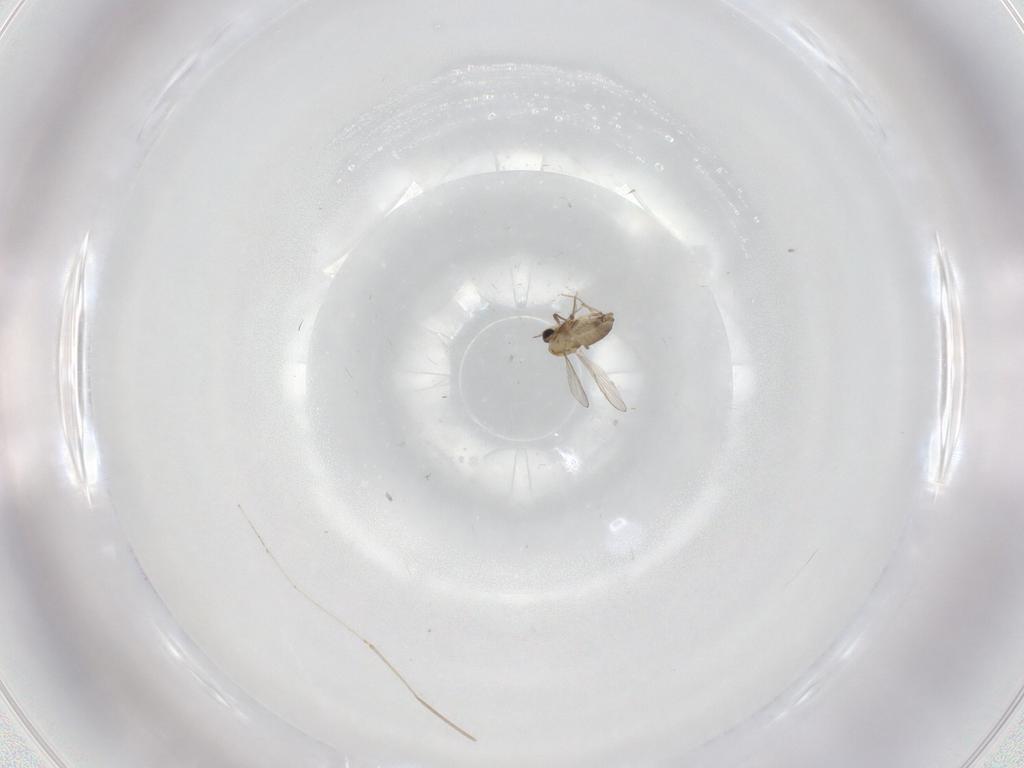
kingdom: Animalia
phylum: Arthropoda
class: Insecta
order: Diptera
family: Chironomidae
